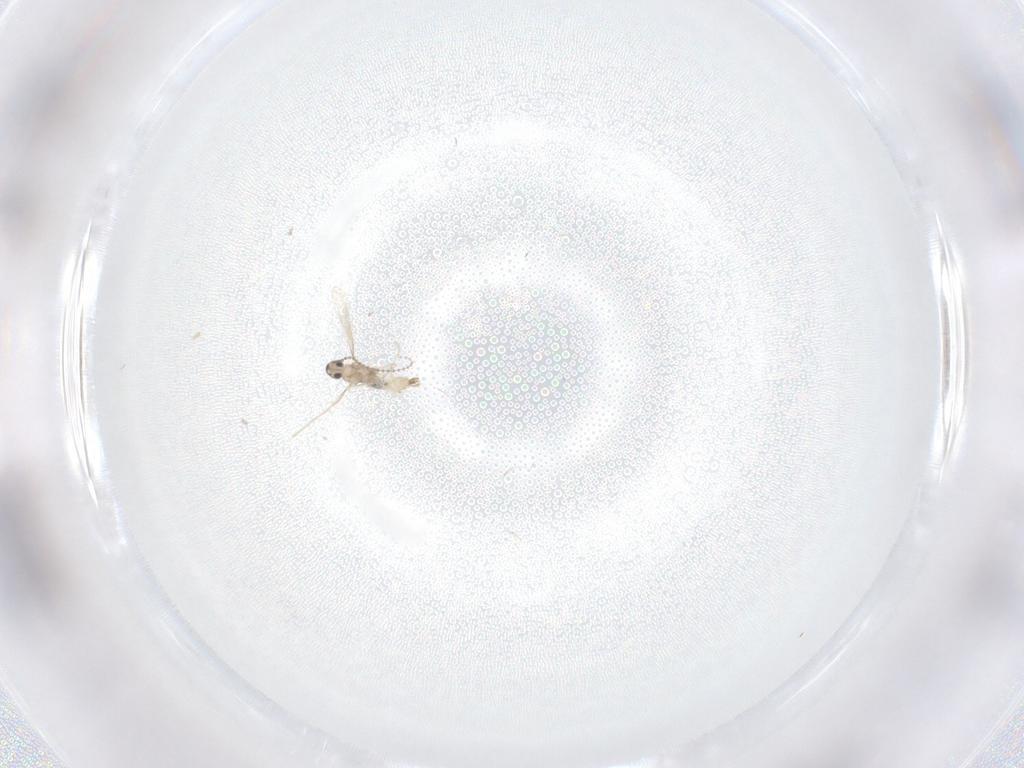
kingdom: Animalia
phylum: Arthropoda
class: Insecta
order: Diptera
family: Cecidomyiidae
